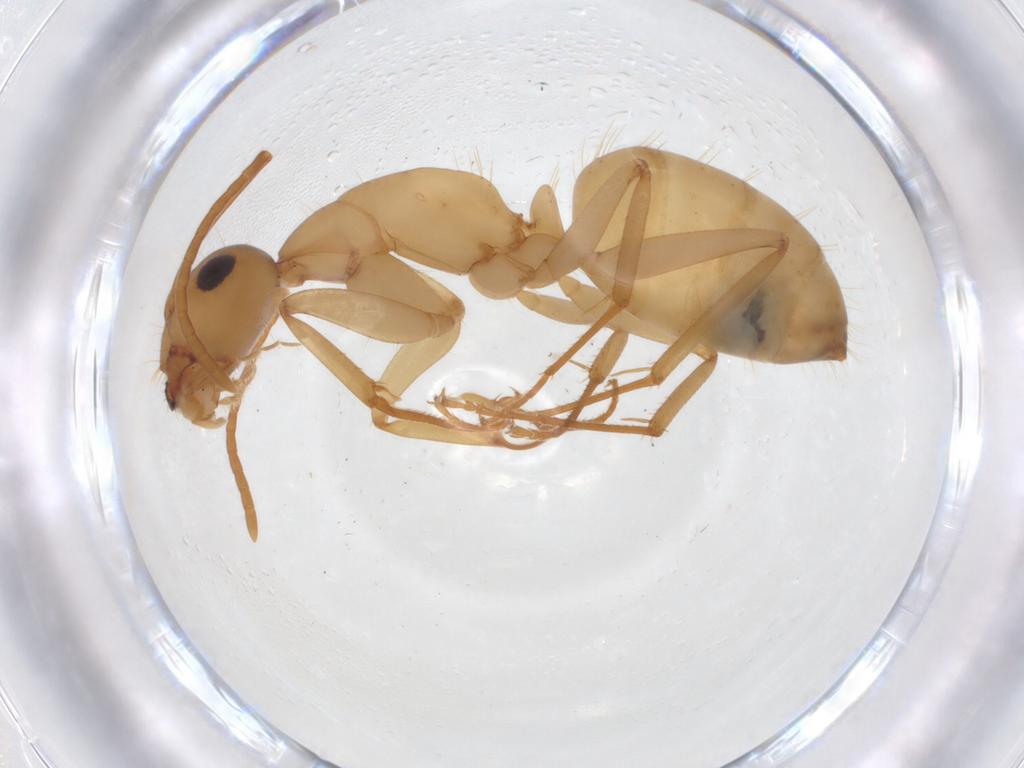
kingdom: Animalia
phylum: Arthropoda
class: Insecta
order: Hymenoptera
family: Formicidae
